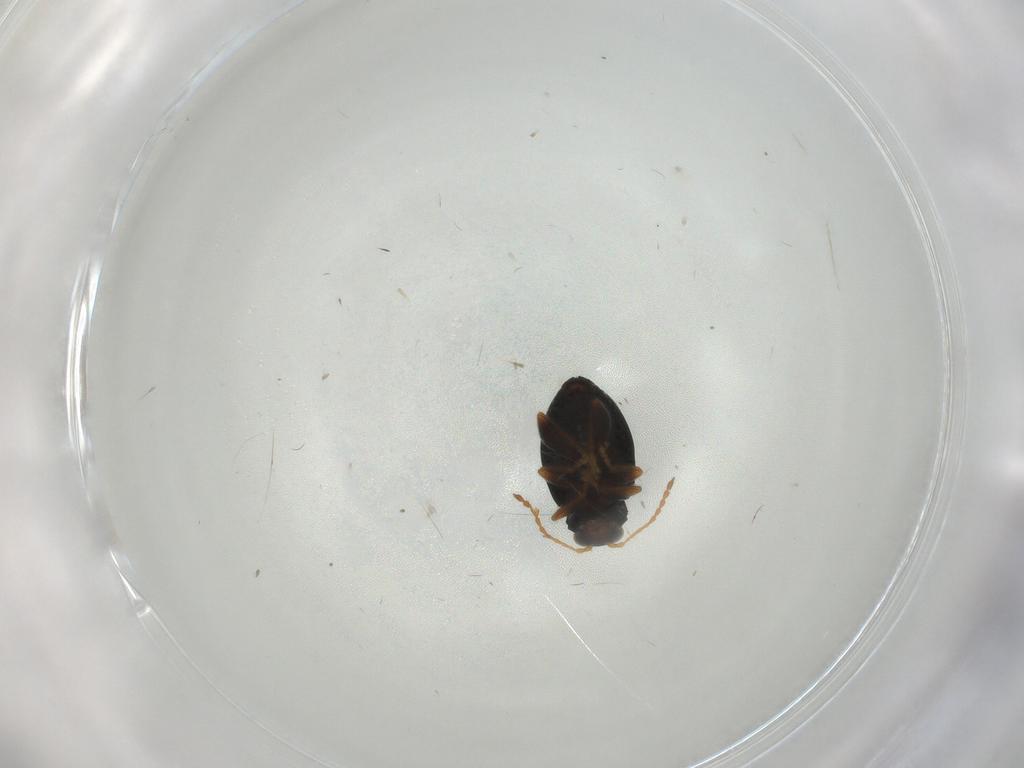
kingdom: Animalia
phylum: Arthropoda
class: Insecta
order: Coleoptera
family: Chrysomelidae
